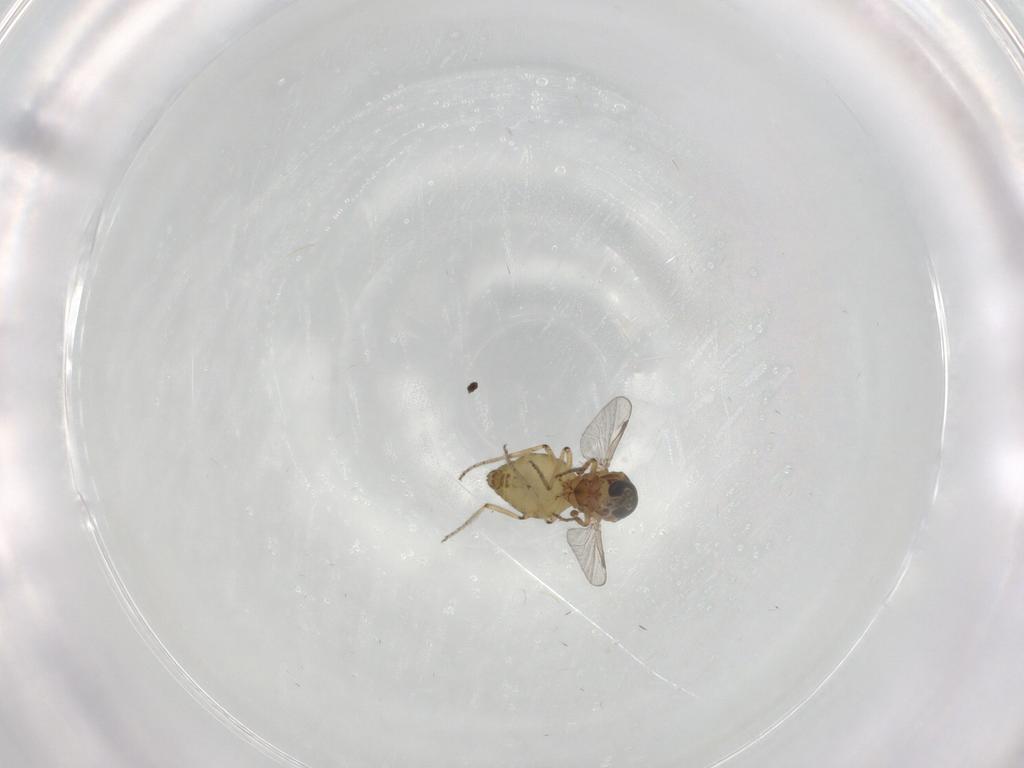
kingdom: Animalia
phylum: Arthropoda
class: Insecta
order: Diptera
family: Ceratopogonidae
